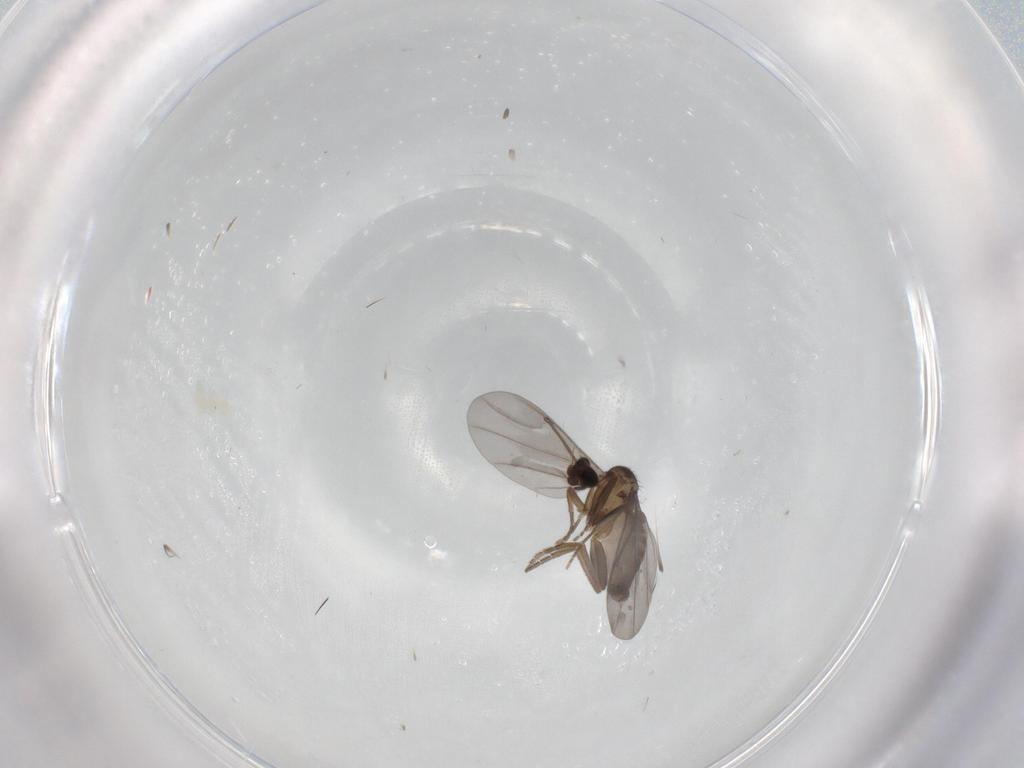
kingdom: Animalia
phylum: Arthropoda
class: Insecta
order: Diptera
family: Phoridae
